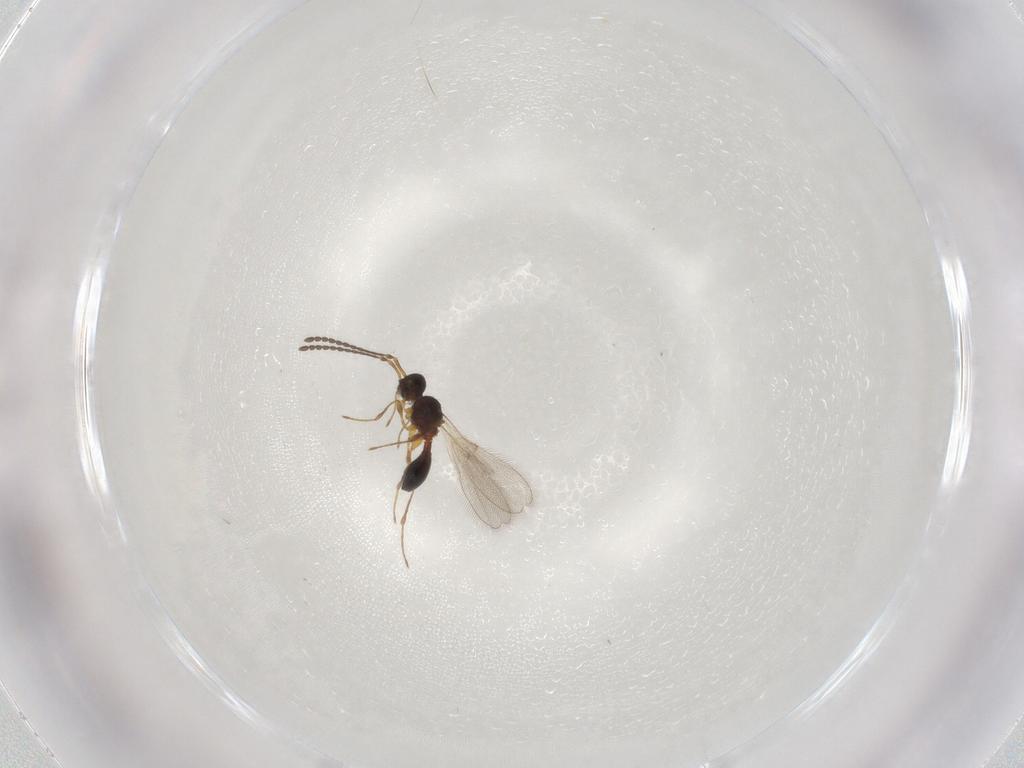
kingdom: Animalia
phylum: Arthropoda
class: Insecta
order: Hymenoptera
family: Diapriidae
